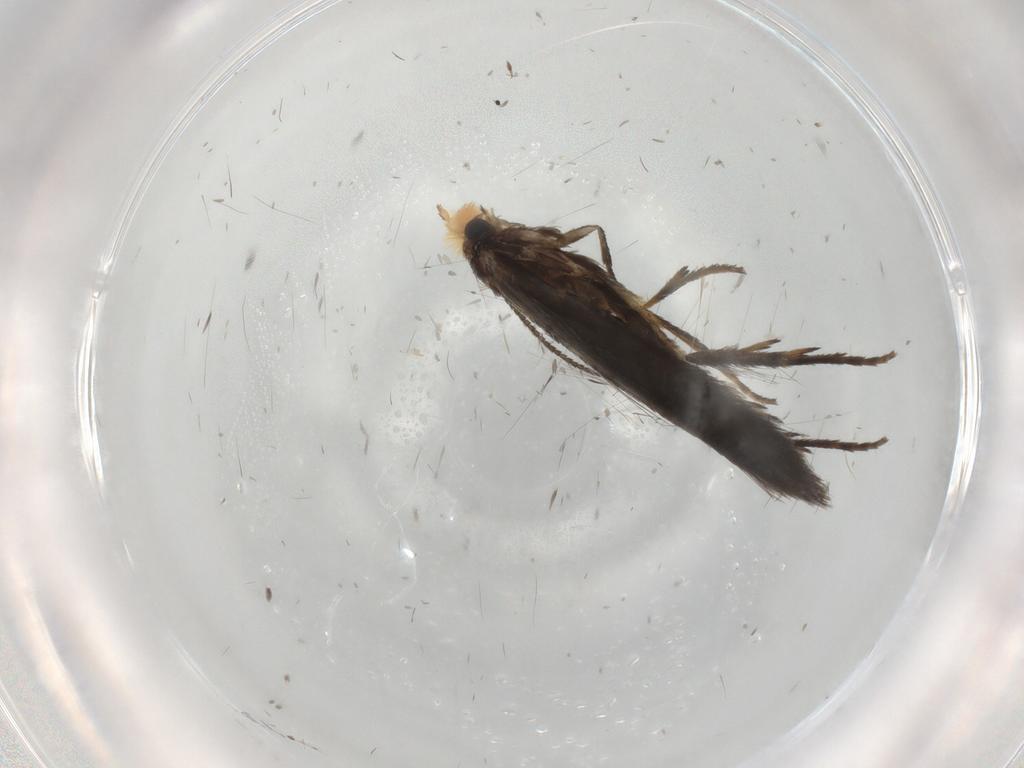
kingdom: Animalia
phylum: Arthropoda
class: Insecta
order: Lepidoptera
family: Nepticulidae
